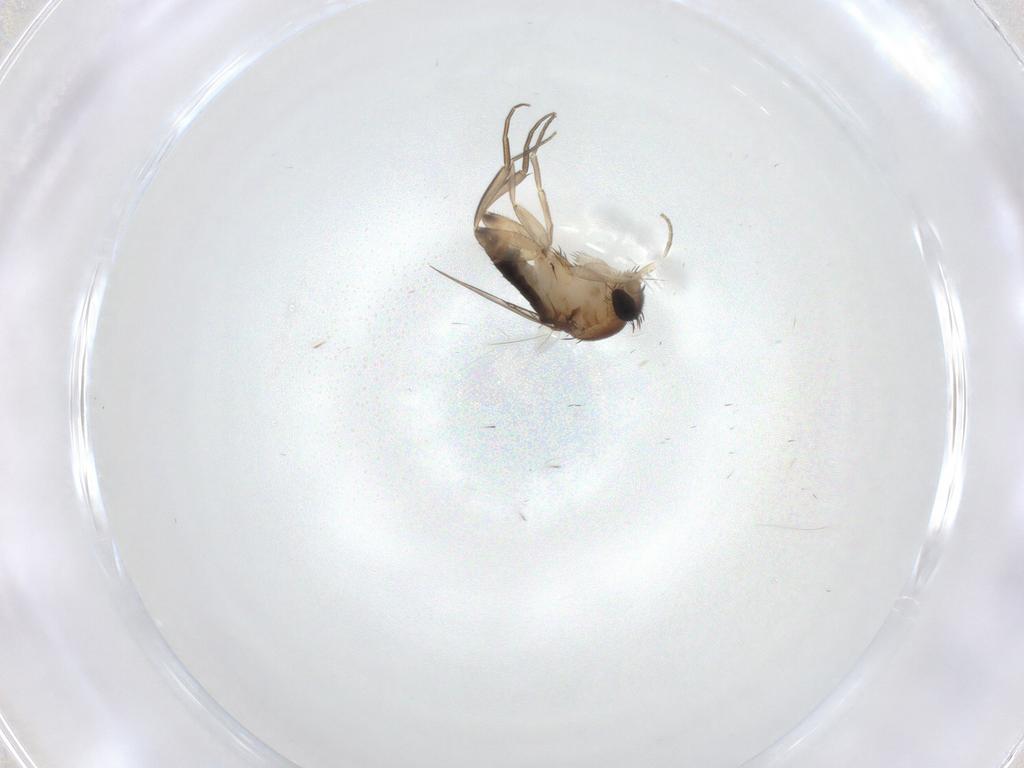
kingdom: Animalia
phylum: Arthropoda
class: Insecta
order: Diptera
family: Phoridae
